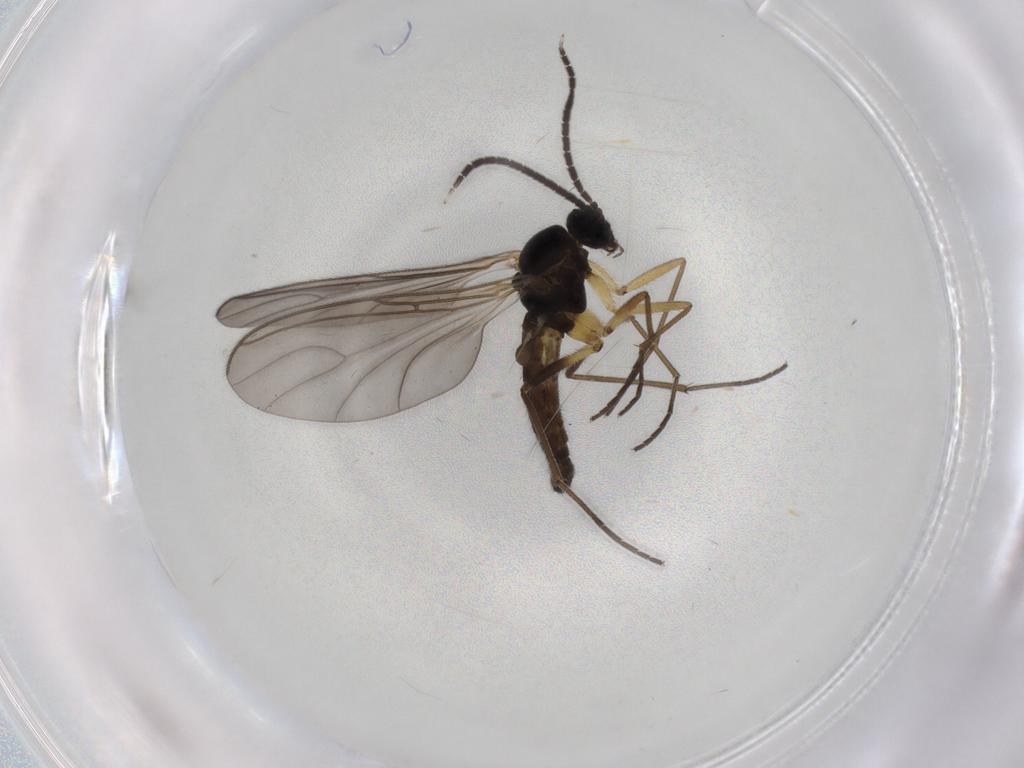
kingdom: Animalia
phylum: Arthropoda
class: Insecta
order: Diptera
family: Sciaridae
